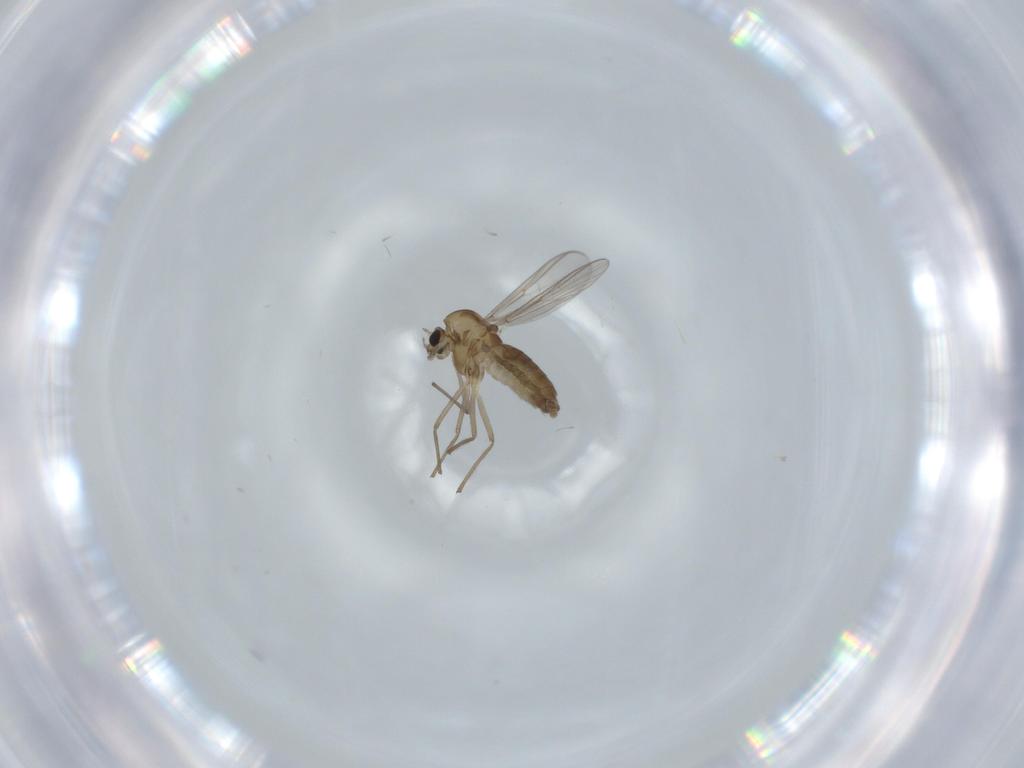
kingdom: Animalia
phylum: Arthropoda
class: Insecta
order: Diptera
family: Chironomidae
